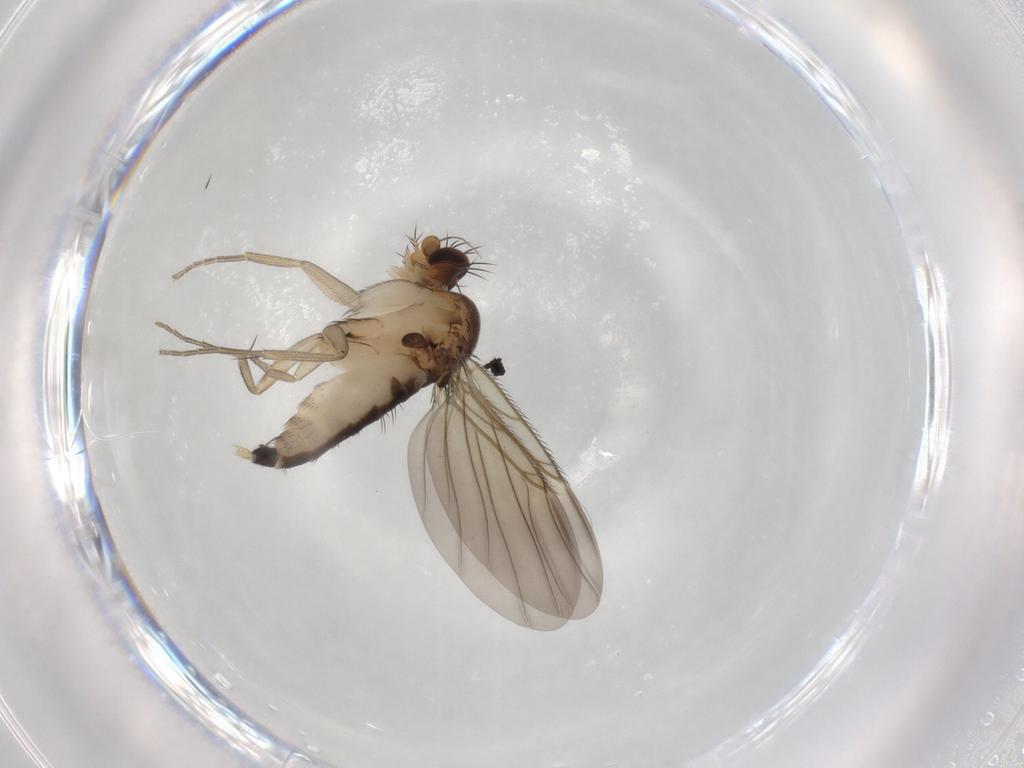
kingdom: Animalia
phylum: Arthropoda
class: Insecta
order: Diptera
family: Phoridae
